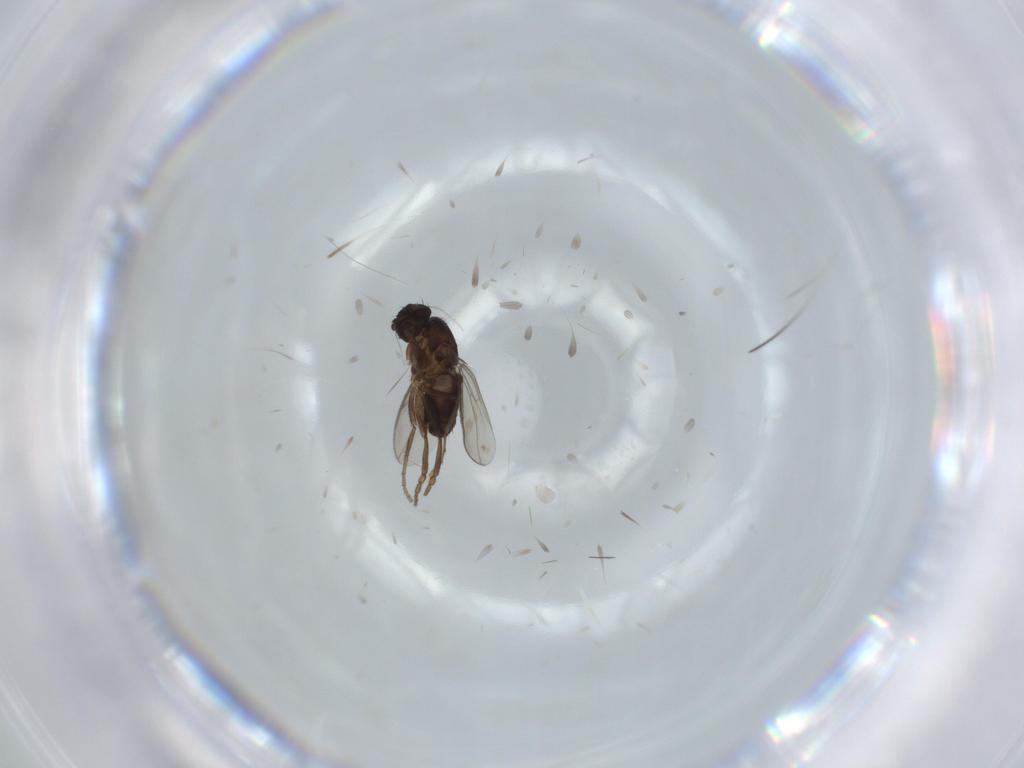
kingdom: Animalia
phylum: Arthropoda
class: Insecta
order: Diptera
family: Sphaeroceridae
